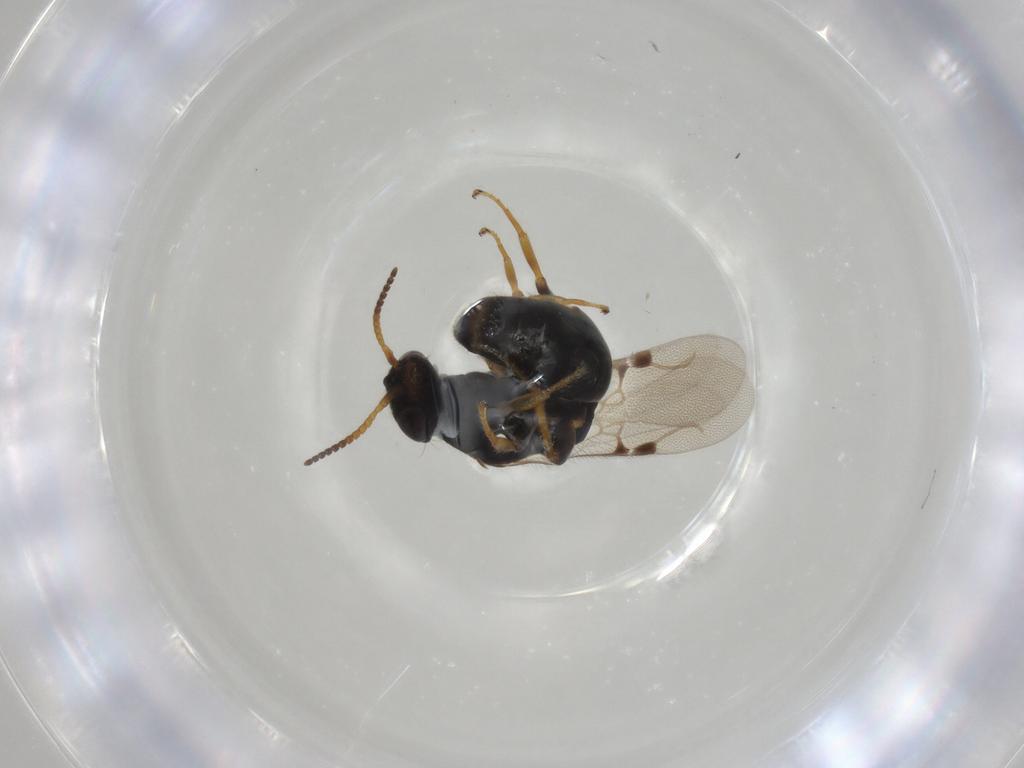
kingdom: Animalia
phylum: Arthropoda
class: Insecta
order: Hymenoptera
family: Bethylidae
